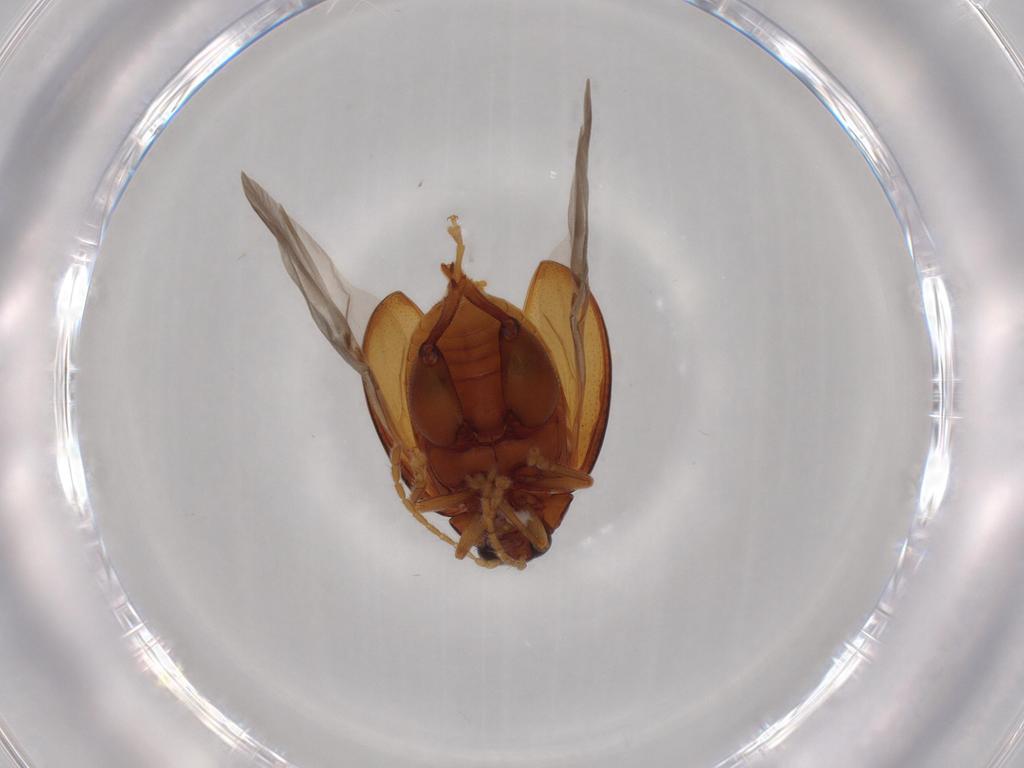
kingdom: Animalia
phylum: Arthropoda
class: Insecta
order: Coleoptera
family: Chrysomelidae
